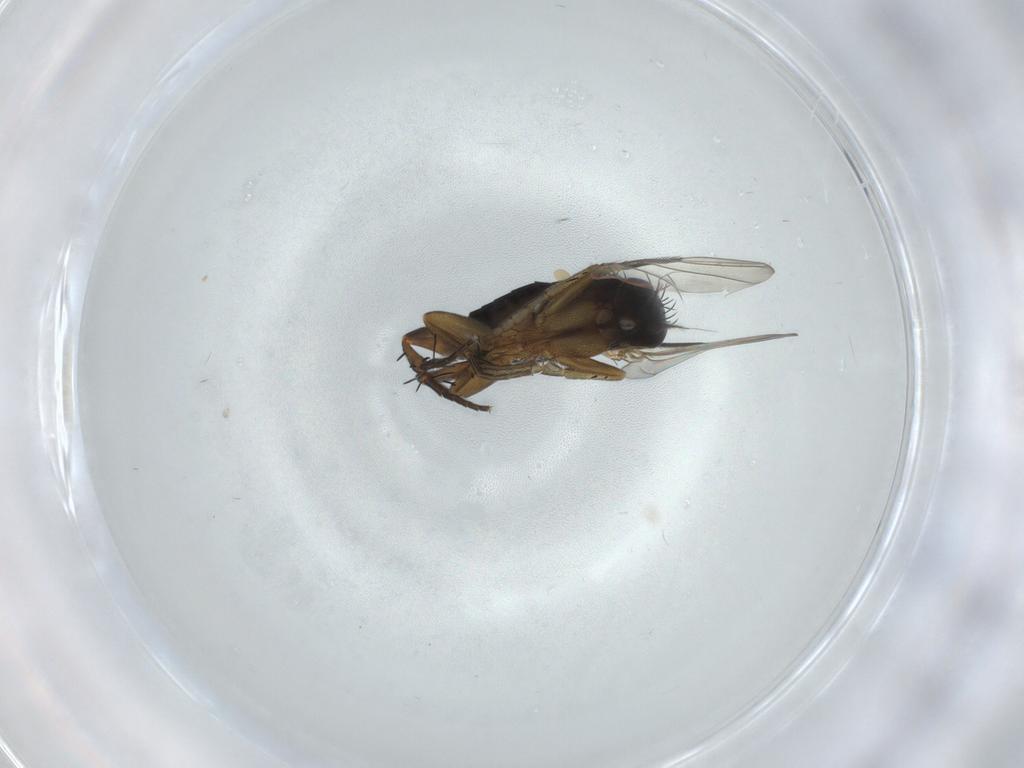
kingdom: Animalia
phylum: Arthropoda
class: Insecta
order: Diptera
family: Phoridae
